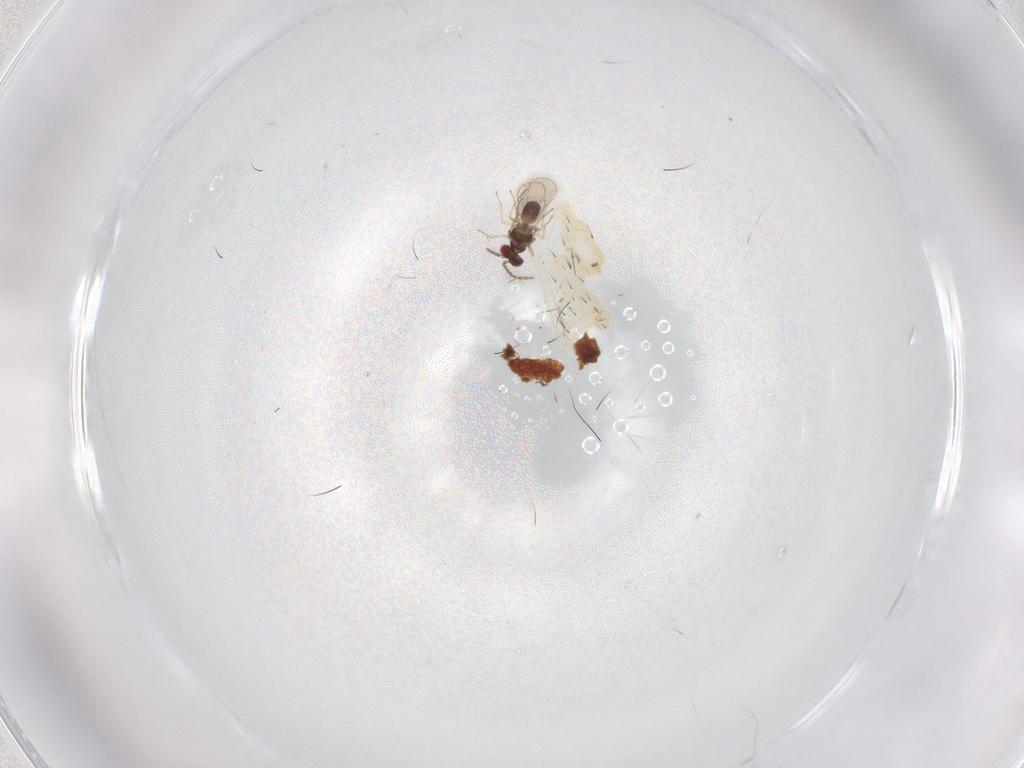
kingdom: Animalia
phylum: Arthropoda
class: Insecta
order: Hymenoptera
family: Eulophidae
